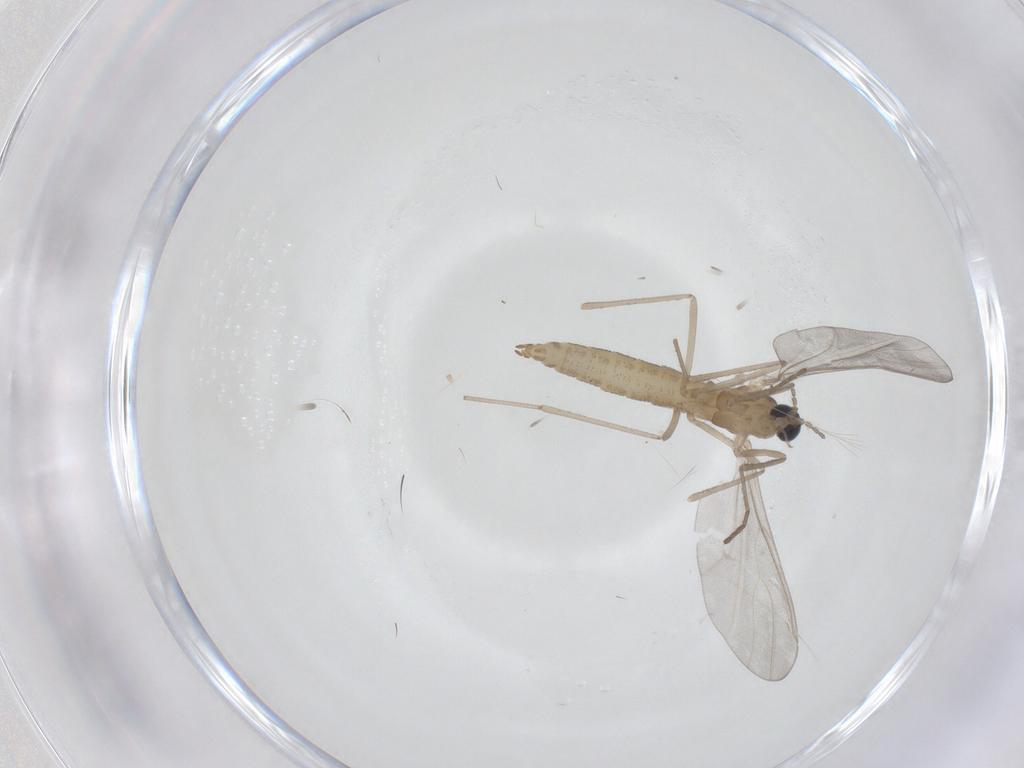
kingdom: Animalia
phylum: Arthropoda
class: Insecta
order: Diptera
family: Cecidomyiidae
